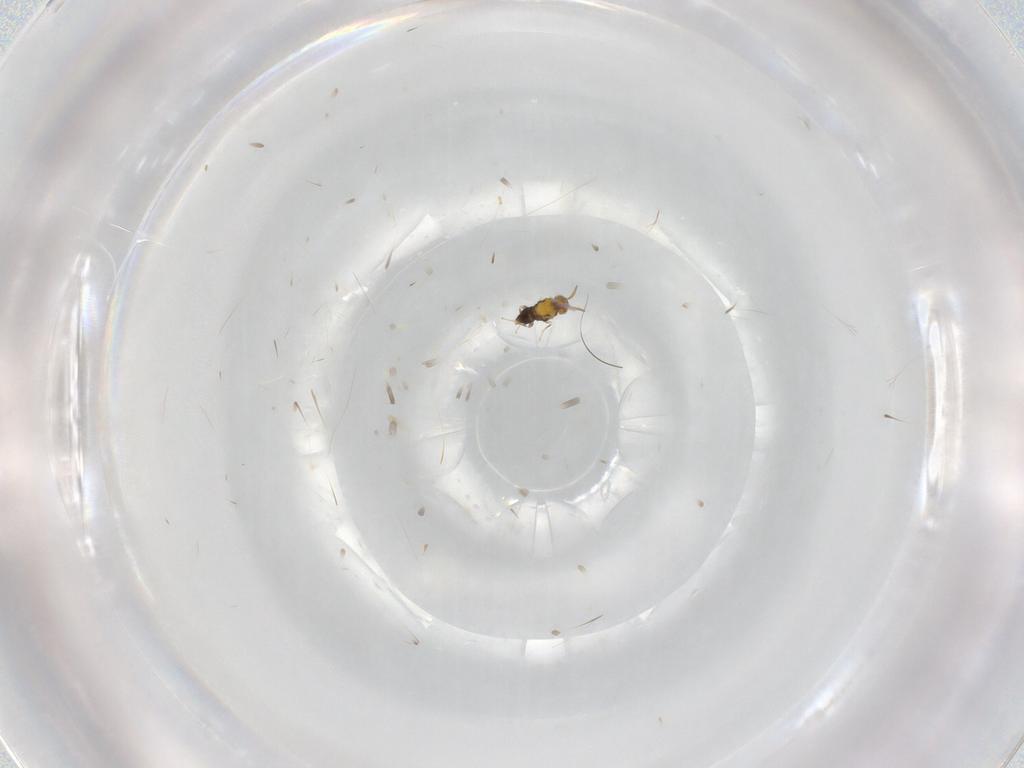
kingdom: Animalia
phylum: Arthropoda
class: Insecta
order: Hymenoptera
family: Aphelinidae
